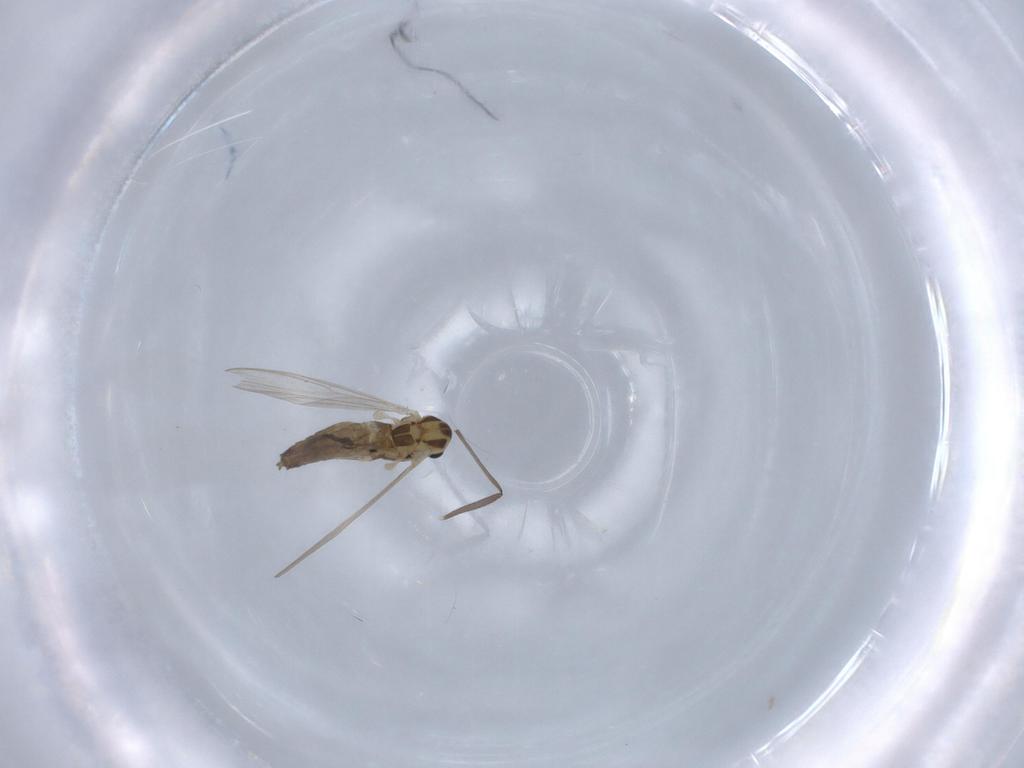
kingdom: Animalia
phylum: Arthropoda
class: Insecta
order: Diptera
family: Chironomidae
